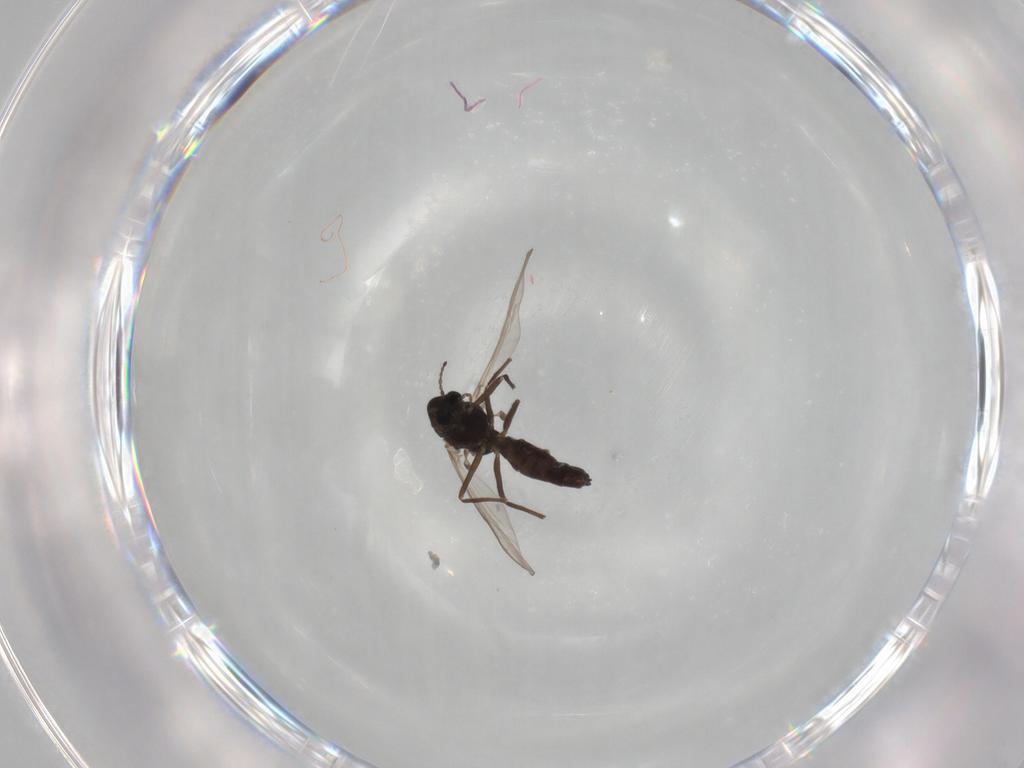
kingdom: Animalia
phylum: Arthropoda
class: Insecta
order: Diptera
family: Chironomidae
